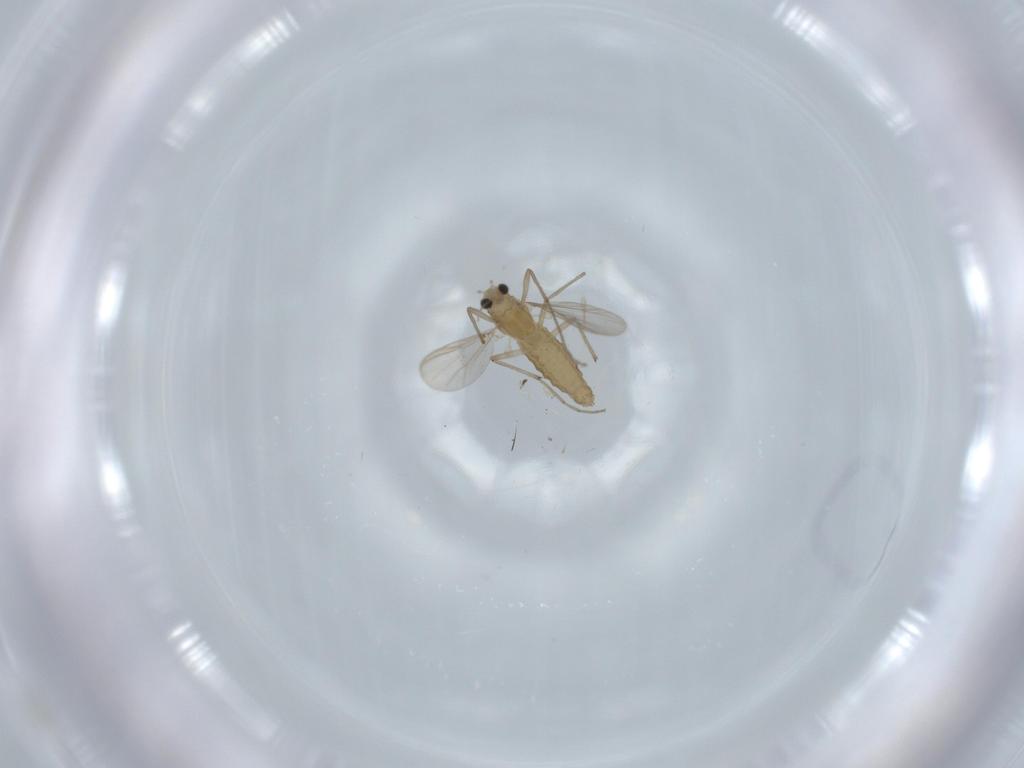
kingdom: Animalia
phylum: Arthropoda
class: Insecta
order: Diptera
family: Chironomidae
